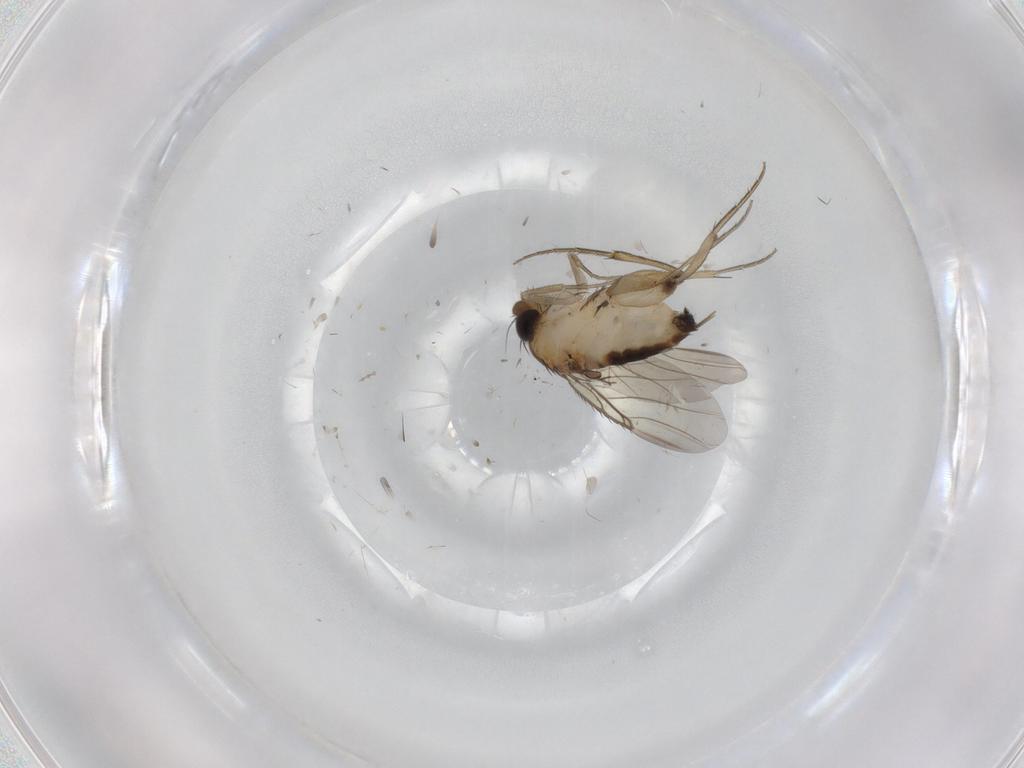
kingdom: Animalia
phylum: Arthropoda
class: Insecta
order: Diptera
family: Phoridae
